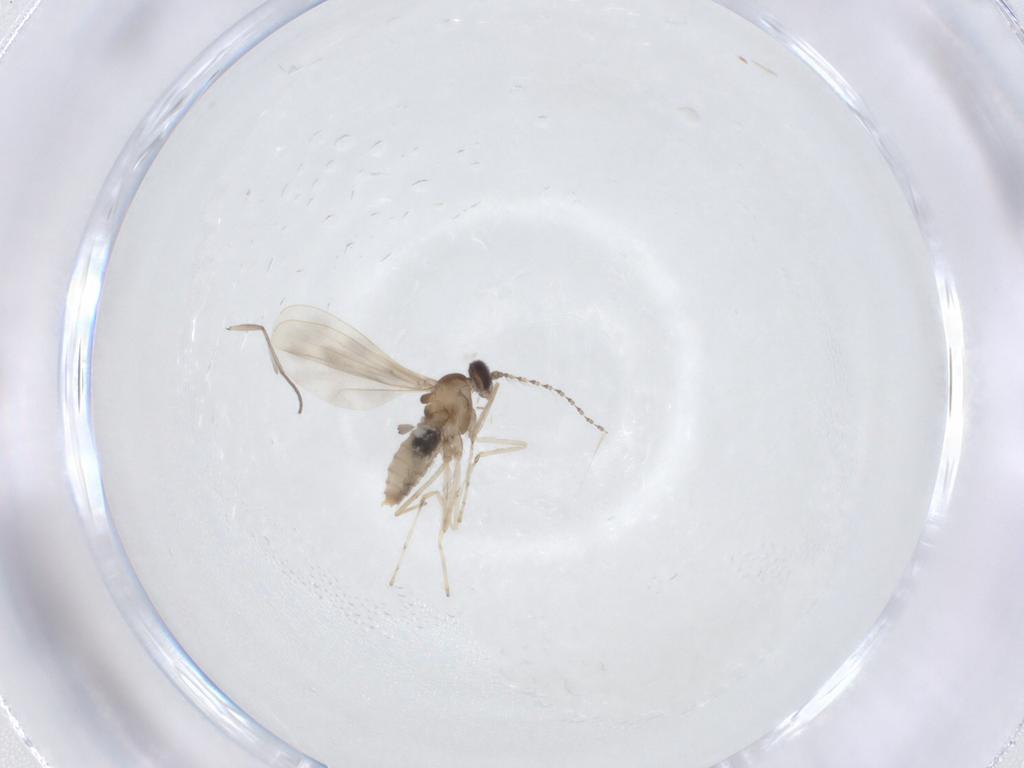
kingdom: Animalia
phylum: Arthropoda
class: Insecta
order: Diptera
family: Cecidomyiidae
